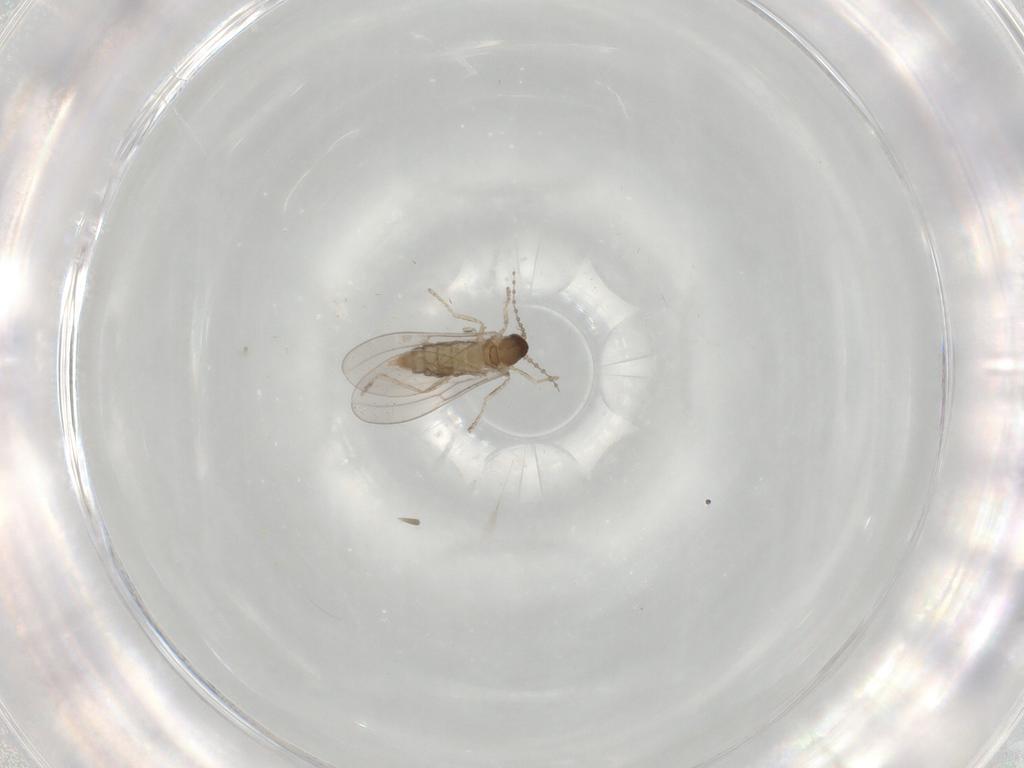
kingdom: Animalia
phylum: Arthropoda
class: Insecta
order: Diptera
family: Cecidomyiidae
